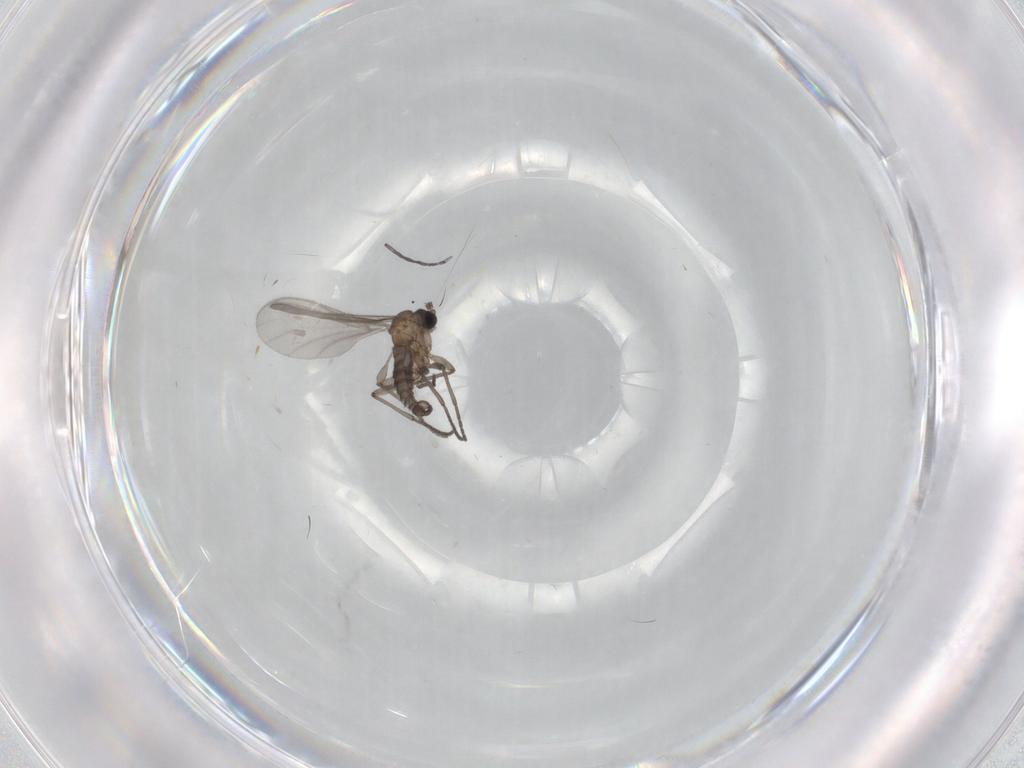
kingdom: Animalia
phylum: Arthropoda
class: Insecta
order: Diptera
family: Sciaridae
